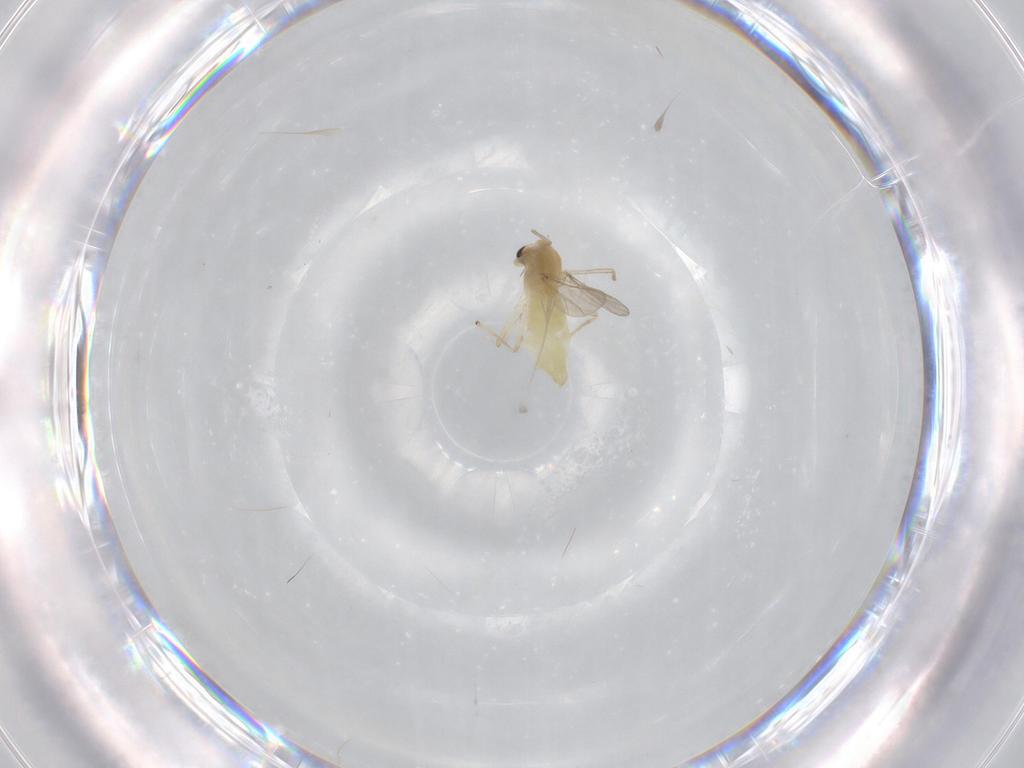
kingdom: Animalia
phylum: Arthropoda
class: Insecta
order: Diptera
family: Chironomidae
